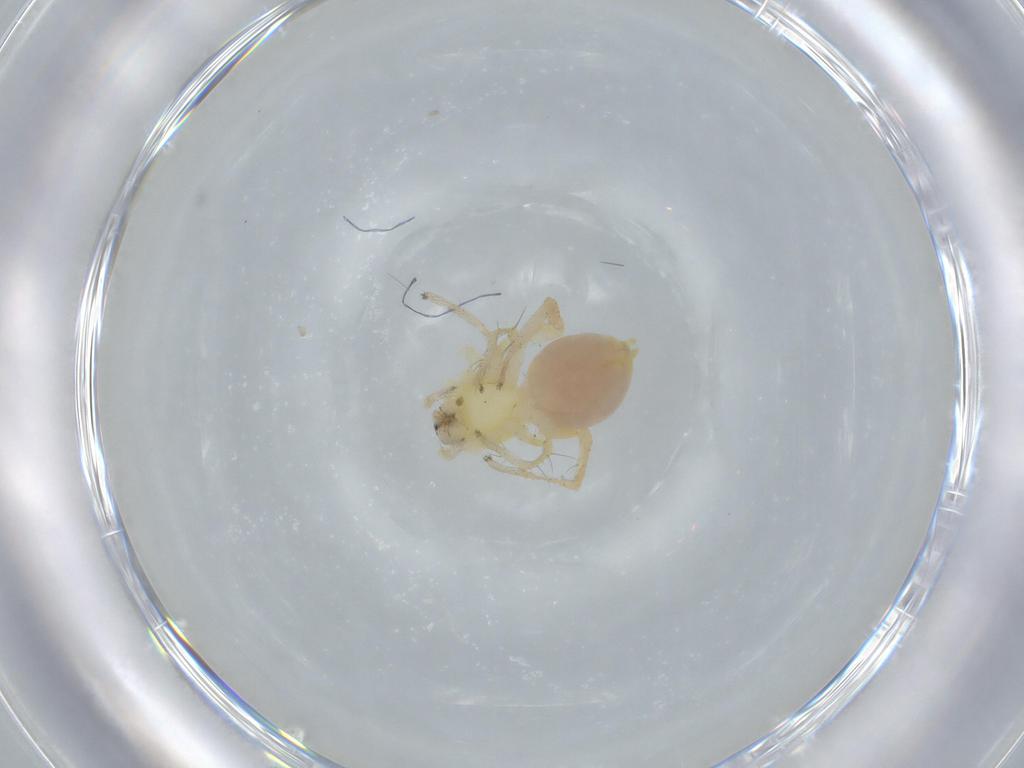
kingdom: Animalia
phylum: Arthropoda
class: Arachnida
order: Araneae
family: Anyphaenidae
